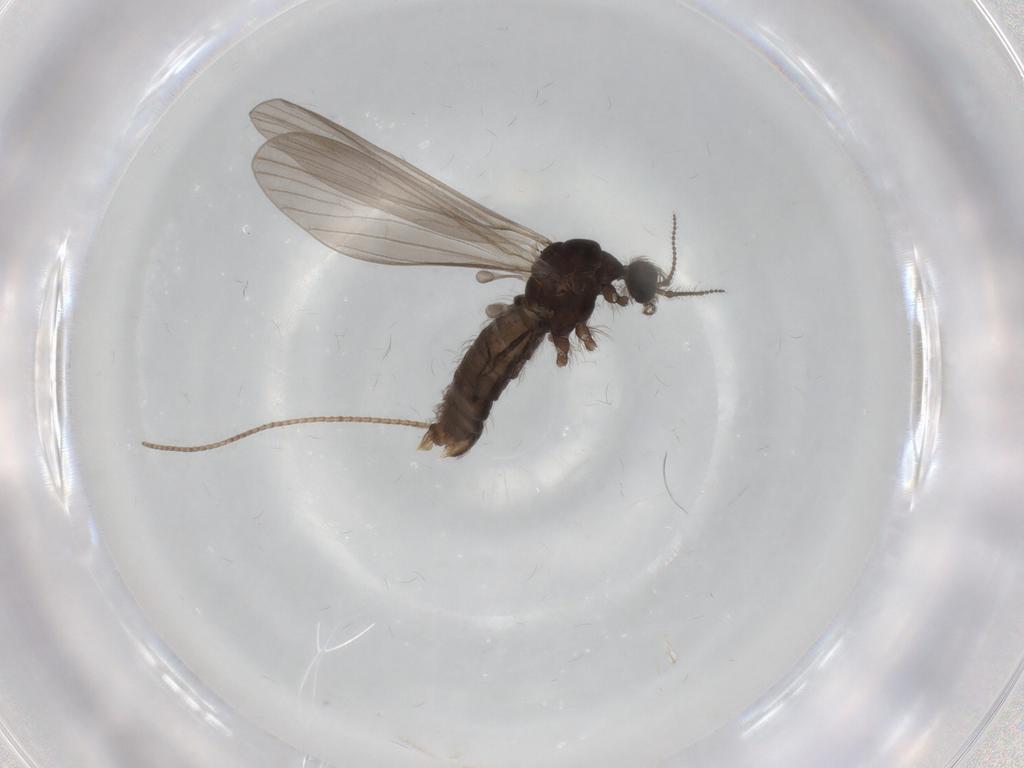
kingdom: Animalia
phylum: Arthropoda
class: Insecta
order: Diptera
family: Limoniidae
